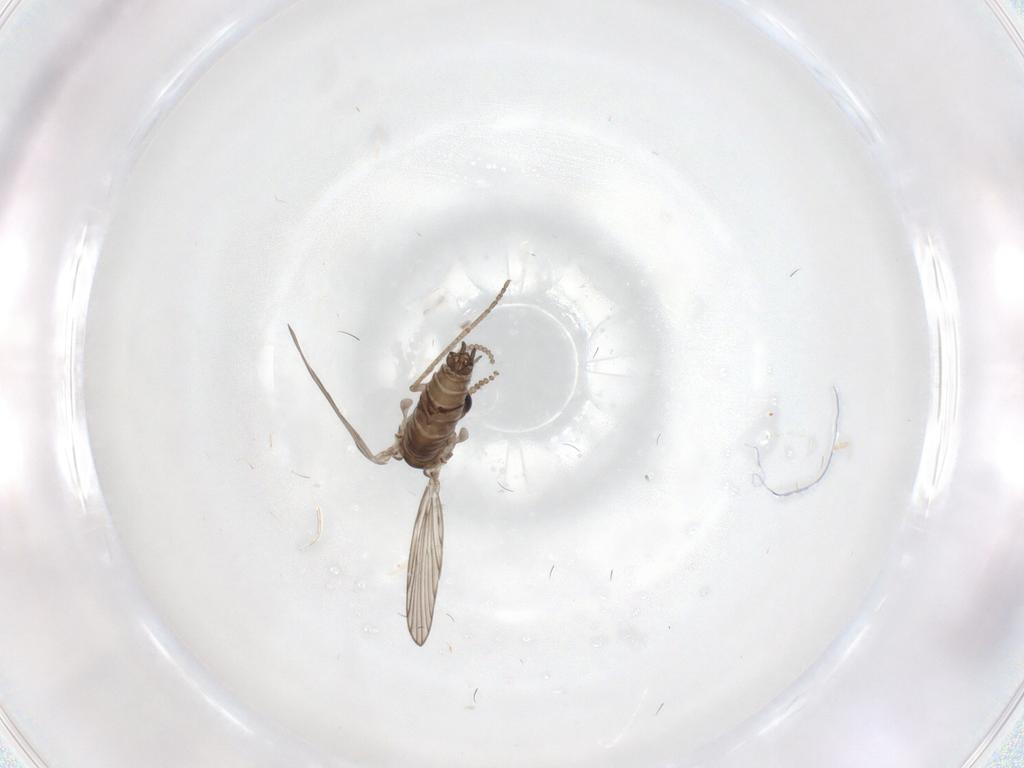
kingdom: Animalia
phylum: Arthropoda
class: Insecta
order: Diptera
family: Psychodidae
